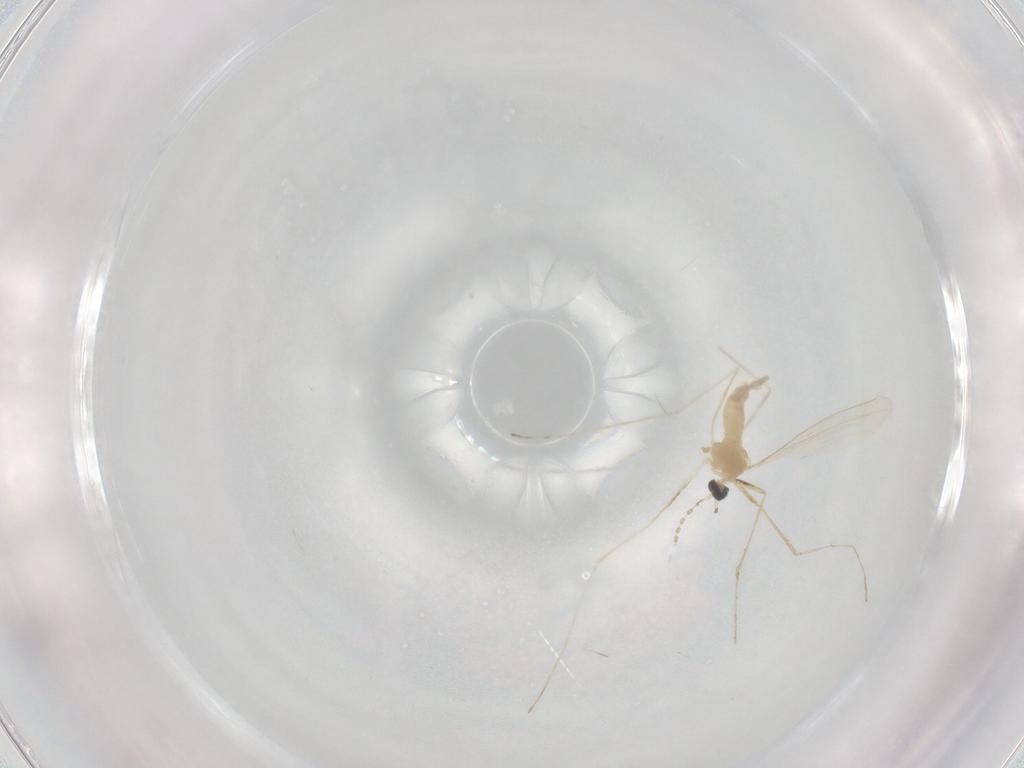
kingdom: Animalia
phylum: Arthropoda
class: Insecta
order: Diptera
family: Cecidomyiidae
